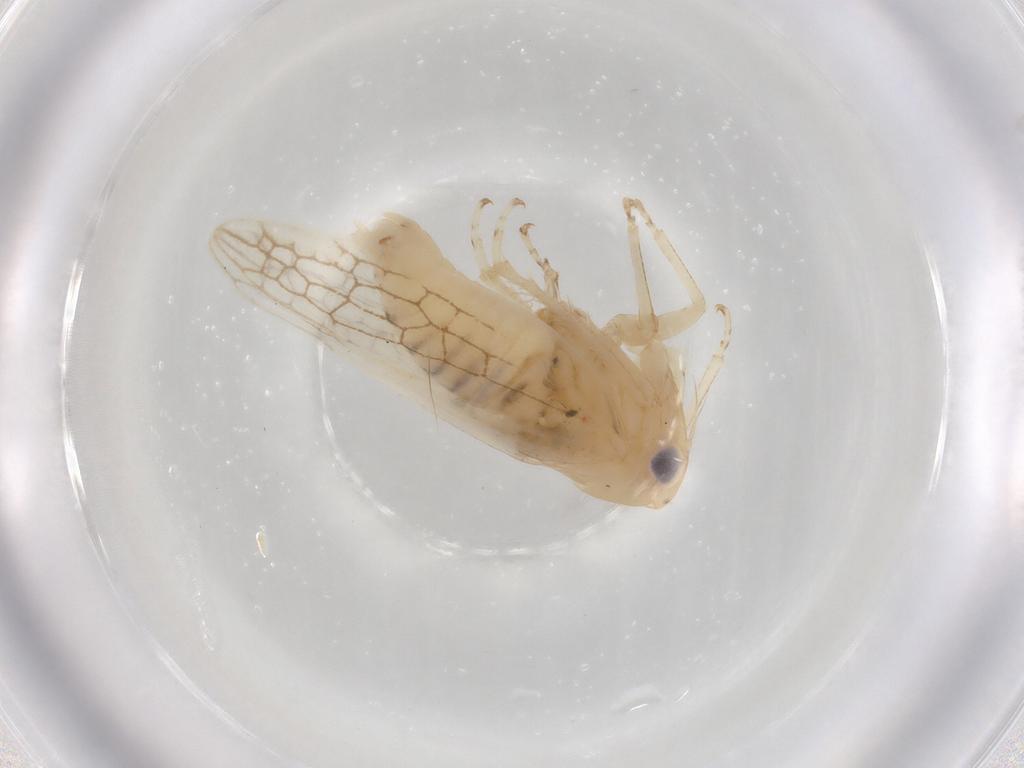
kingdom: Animalia
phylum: Arthropoda
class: Insecta
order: Hemiptera
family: Cicadellidae
